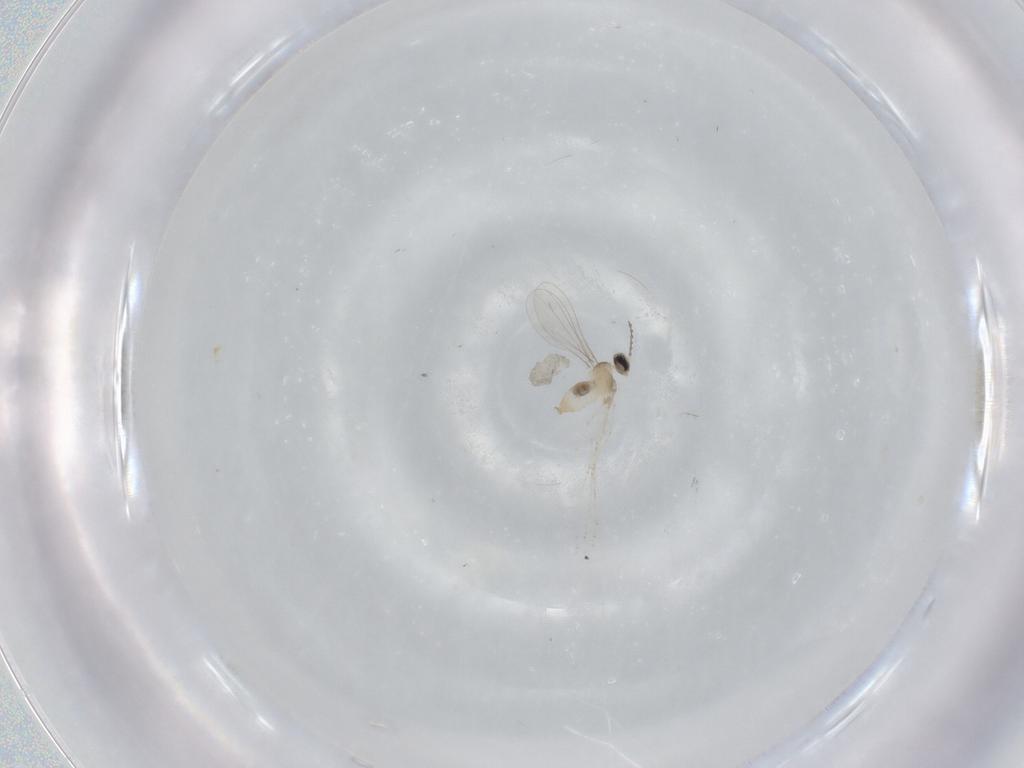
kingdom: Animalia
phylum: Arthropoda
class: Insecta
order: Diptera
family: Cecidomyiidae
